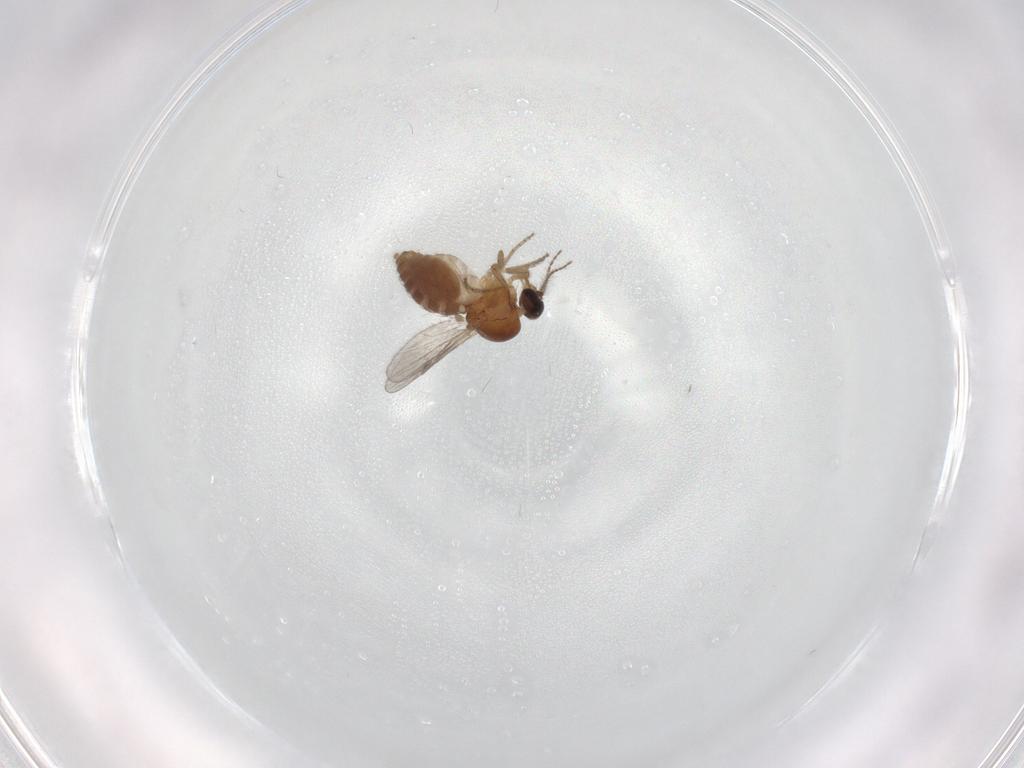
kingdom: Animalia
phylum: Arthropoda
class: Insecta
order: Diptera
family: Ceratopogonidae
